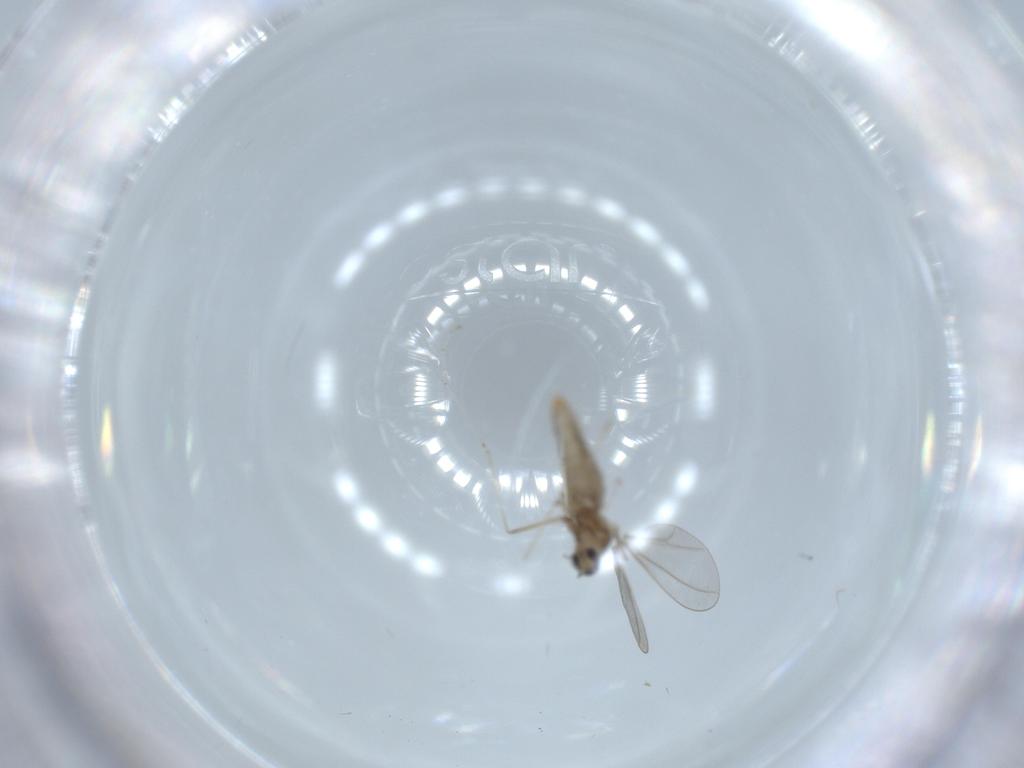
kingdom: Animalia
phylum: Arthropoda
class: Insecta
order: Diptera
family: Cecidomyiidae
